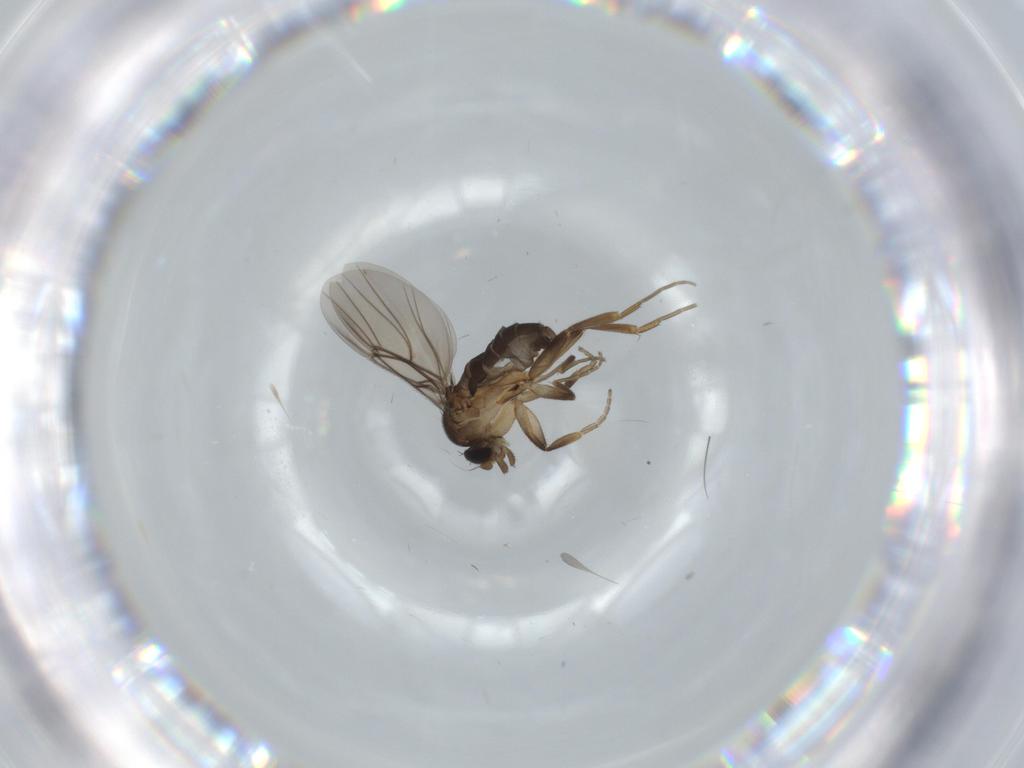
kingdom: Animalia
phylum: Arthropoda
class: Insecta
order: Diptera
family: Phoridae
